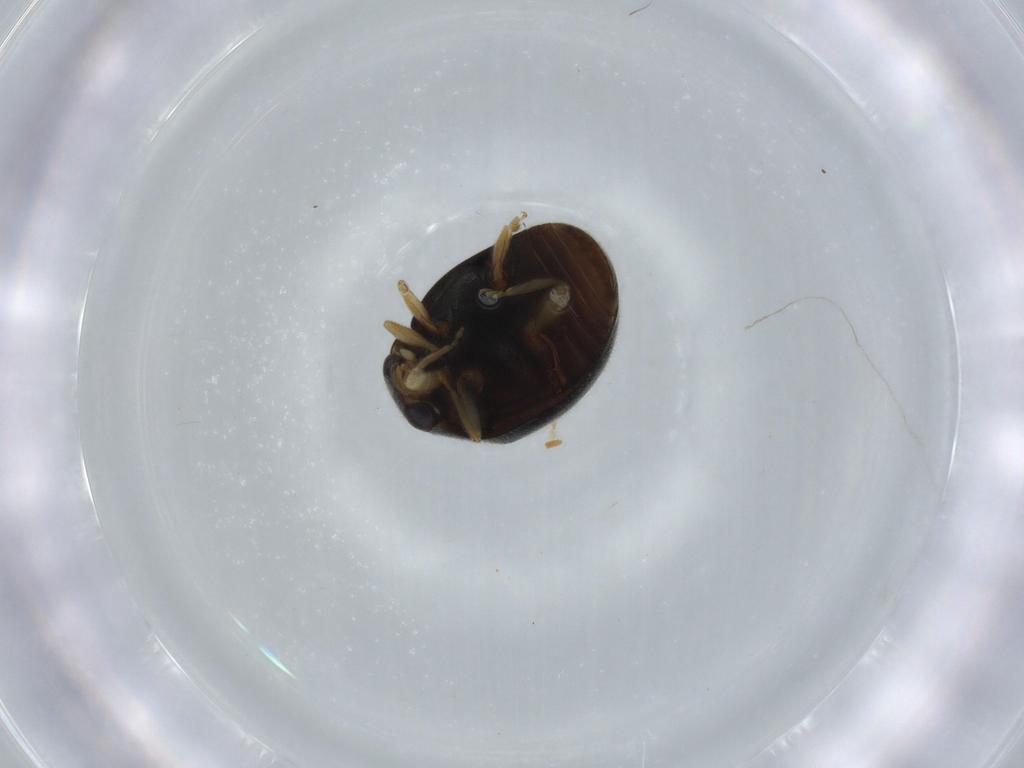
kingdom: Animalia
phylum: Arthropoda
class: Insecta
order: Coleoptera
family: Coccinellidae
